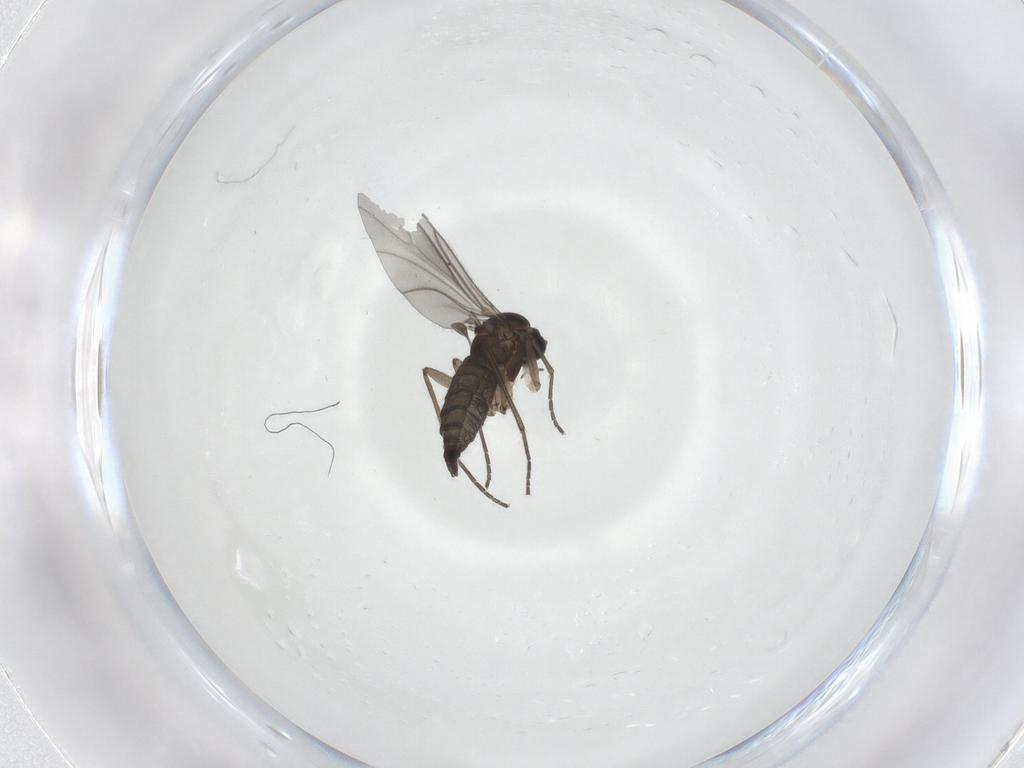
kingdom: Animalia
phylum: Arthropoda
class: Insecta
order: Diptera
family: Sciaridae
